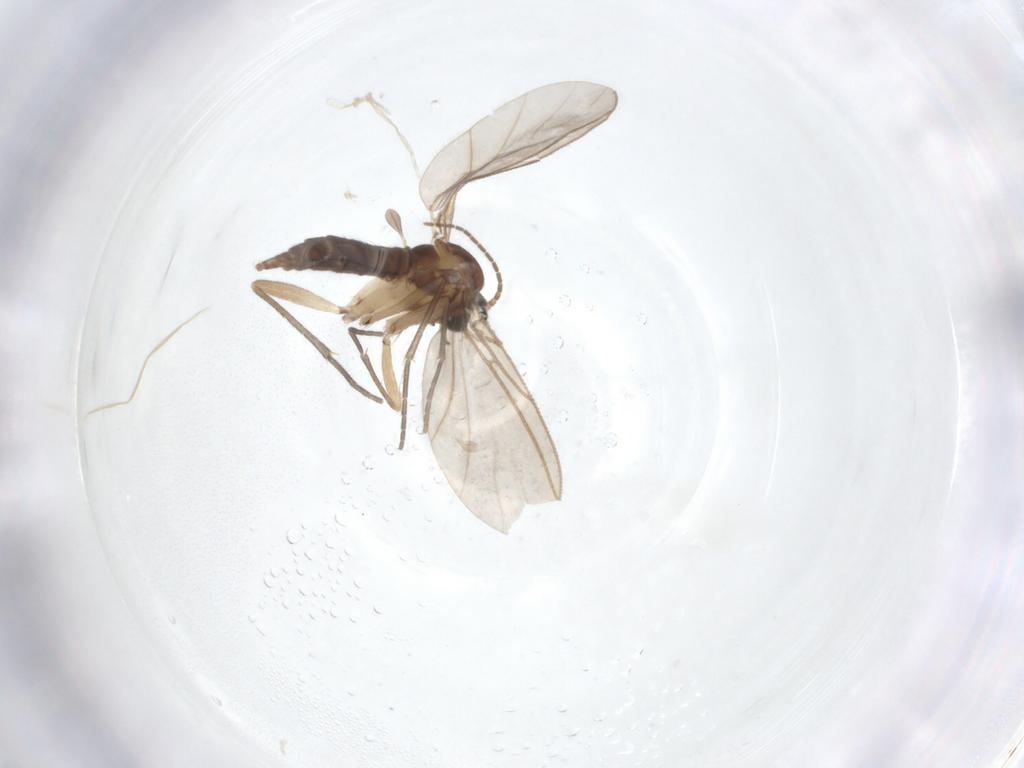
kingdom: Animalia
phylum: Arthropoda
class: Insecta
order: Diptera
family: Sciaridae
